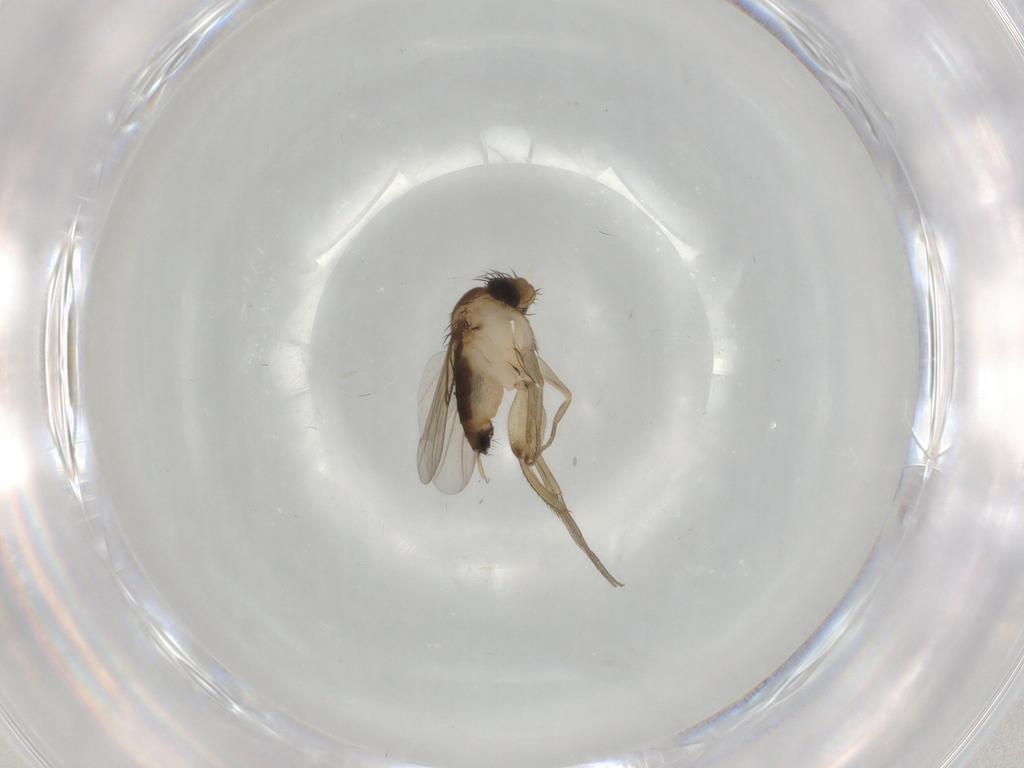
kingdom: Animalia
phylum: Arthropoda
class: Insecta
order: Diptera
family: Phoridae
